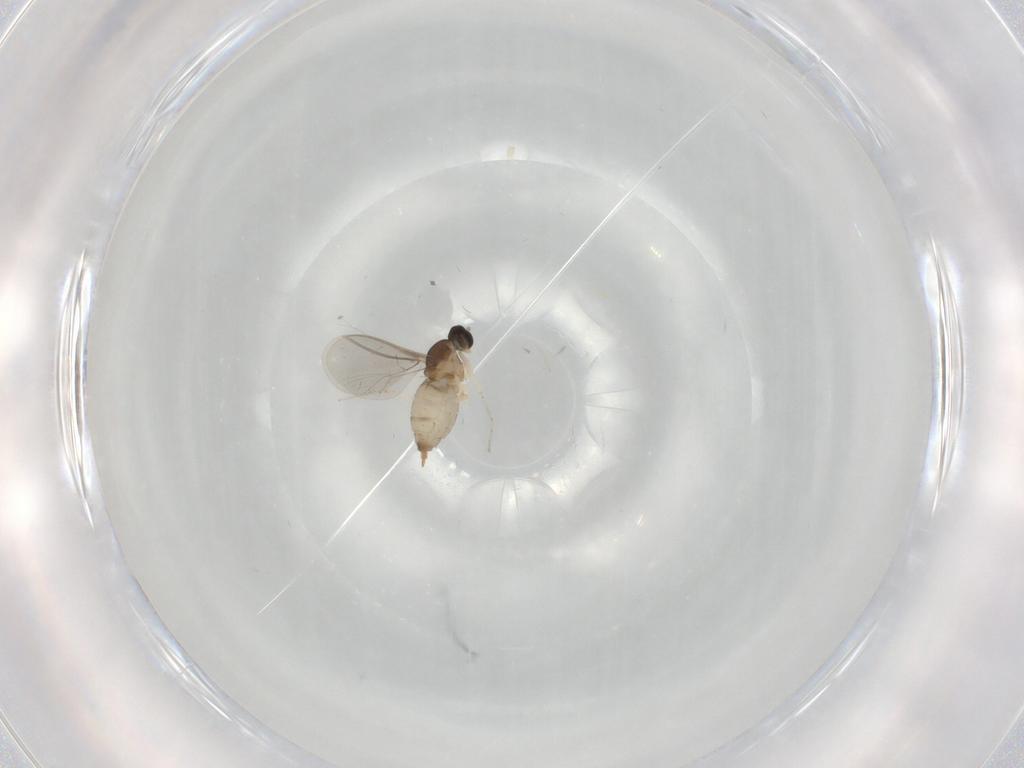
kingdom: Animalia
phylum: Arthropoda
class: Insecta
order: Diptera
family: Cecidomyiidae
